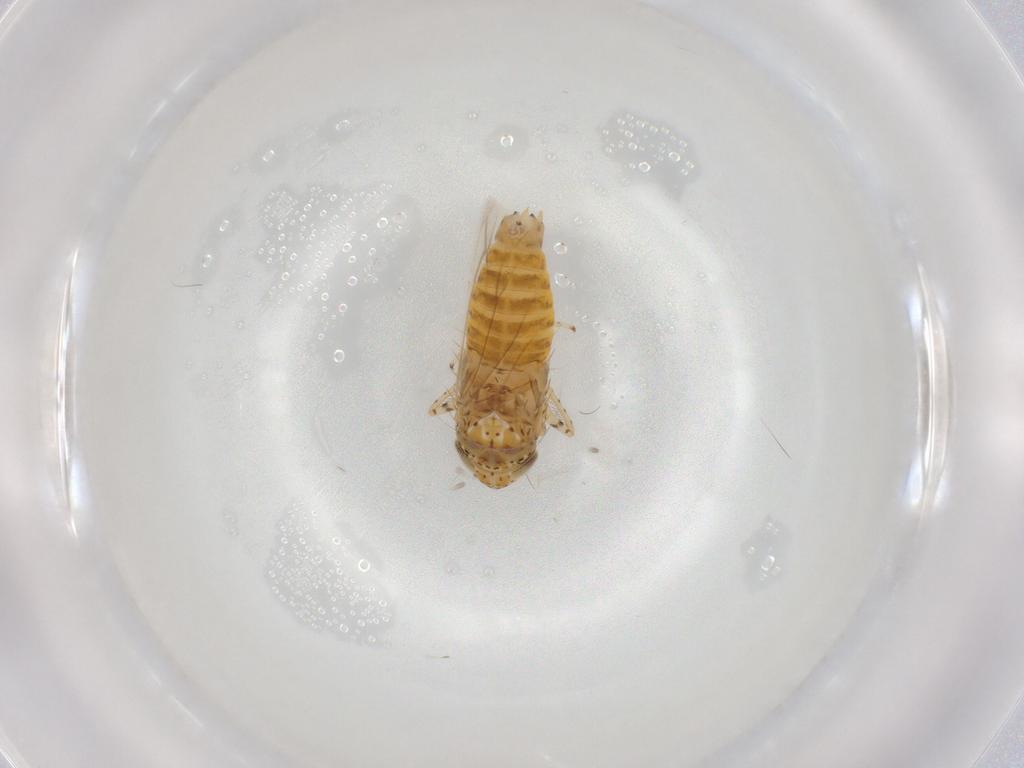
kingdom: Animalia
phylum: Arthropoda
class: Insecta
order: Hemiptera
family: Cicadellidae
